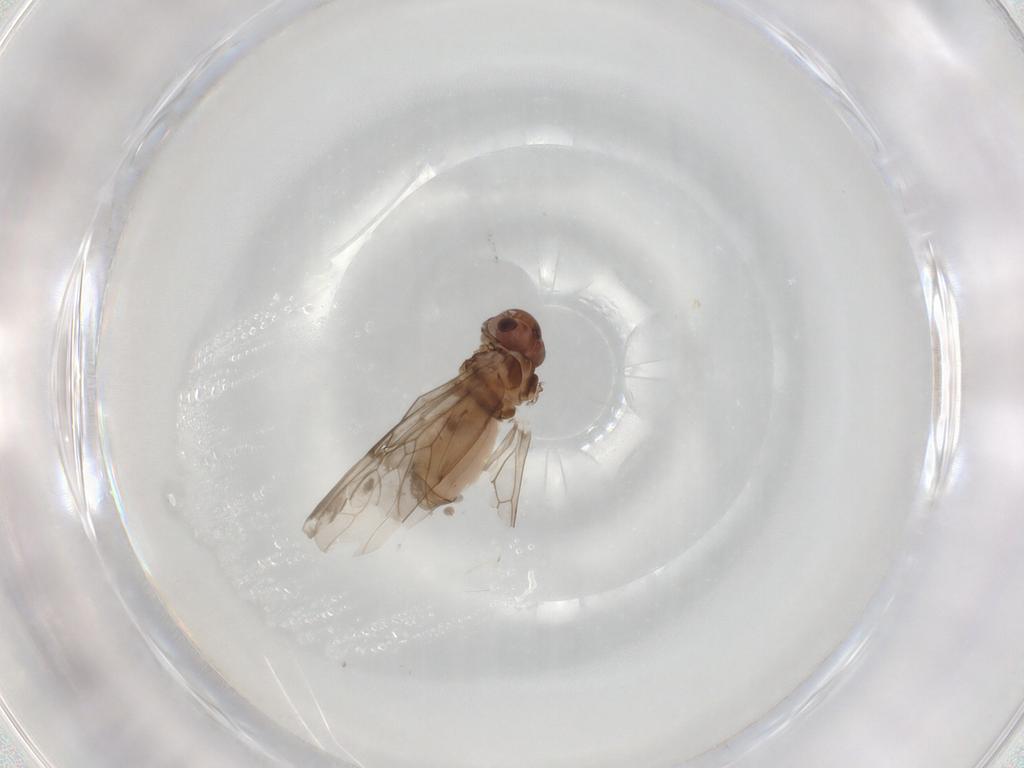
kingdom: Animalia
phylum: Arthropoda
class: Insecta
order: Psocodea
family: Peripsocidae
